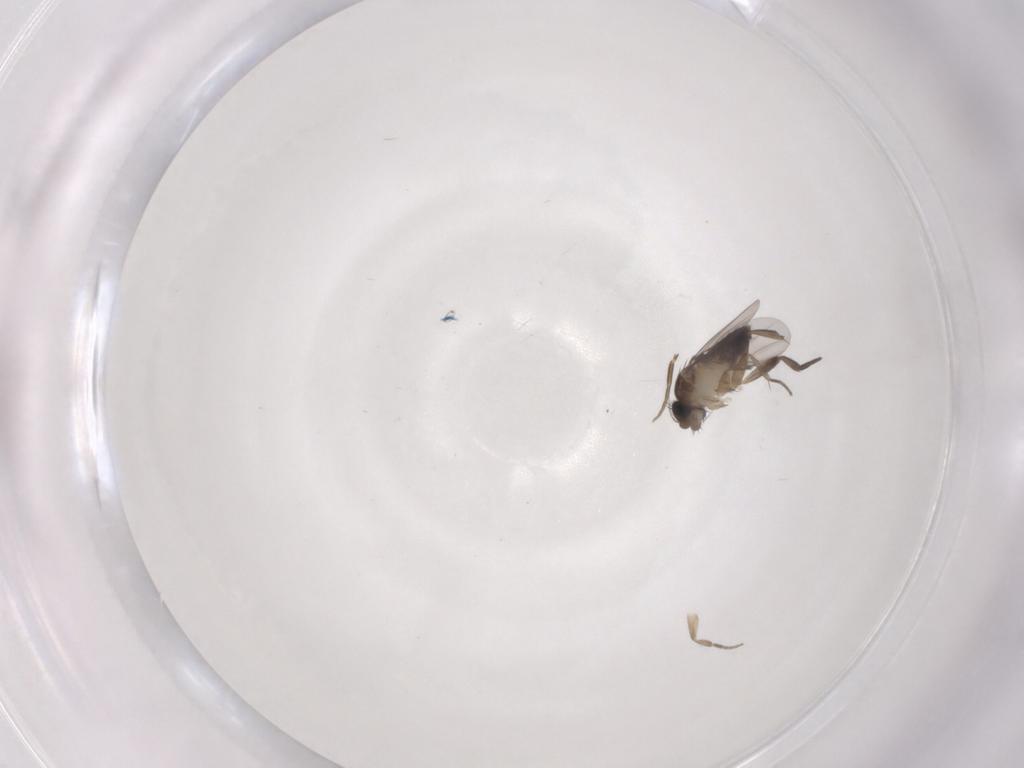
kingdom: Animalia
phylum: Arthropoda
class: Insecta
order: Diptera
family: Phoridae
